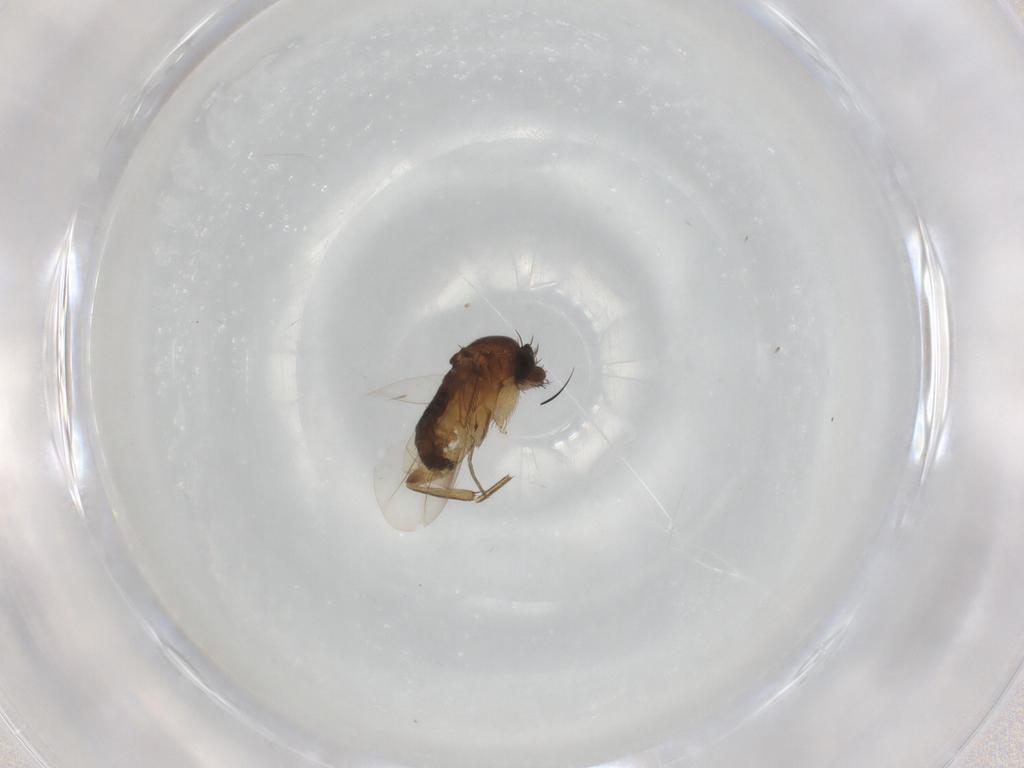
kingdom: Animalia
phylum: Arthropoda
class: Insecta
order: Diptera
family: Phoridae
